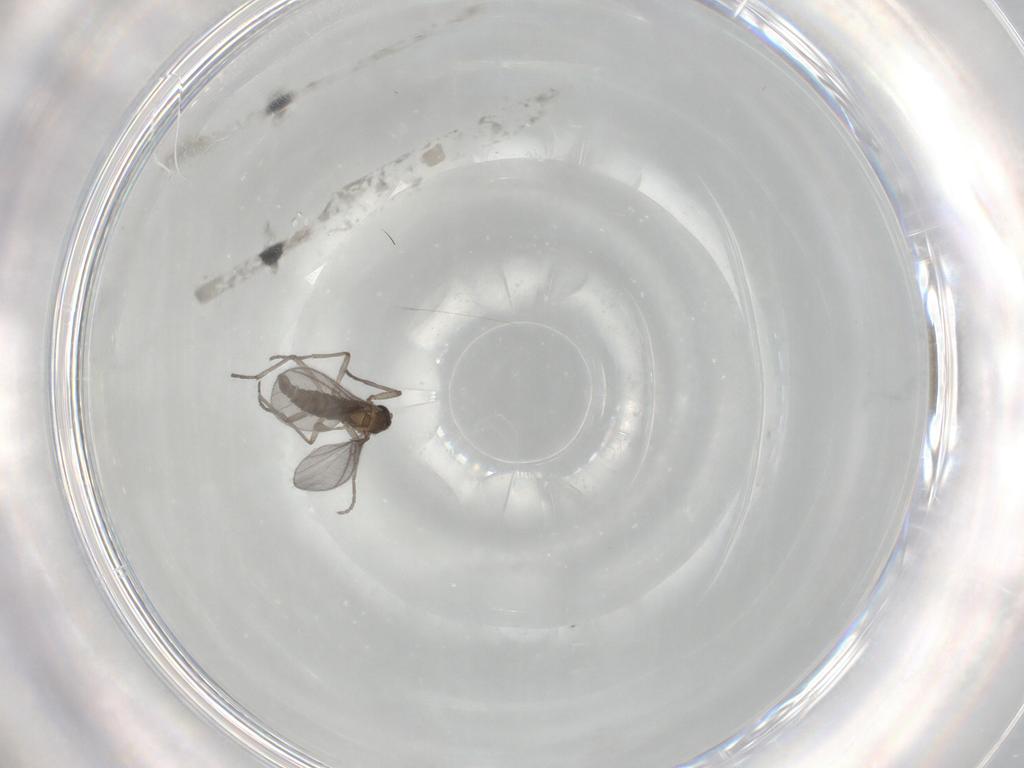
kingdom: Animalia
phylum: Arthropoda
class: Insecta
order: Diptera
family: Sciaridae
